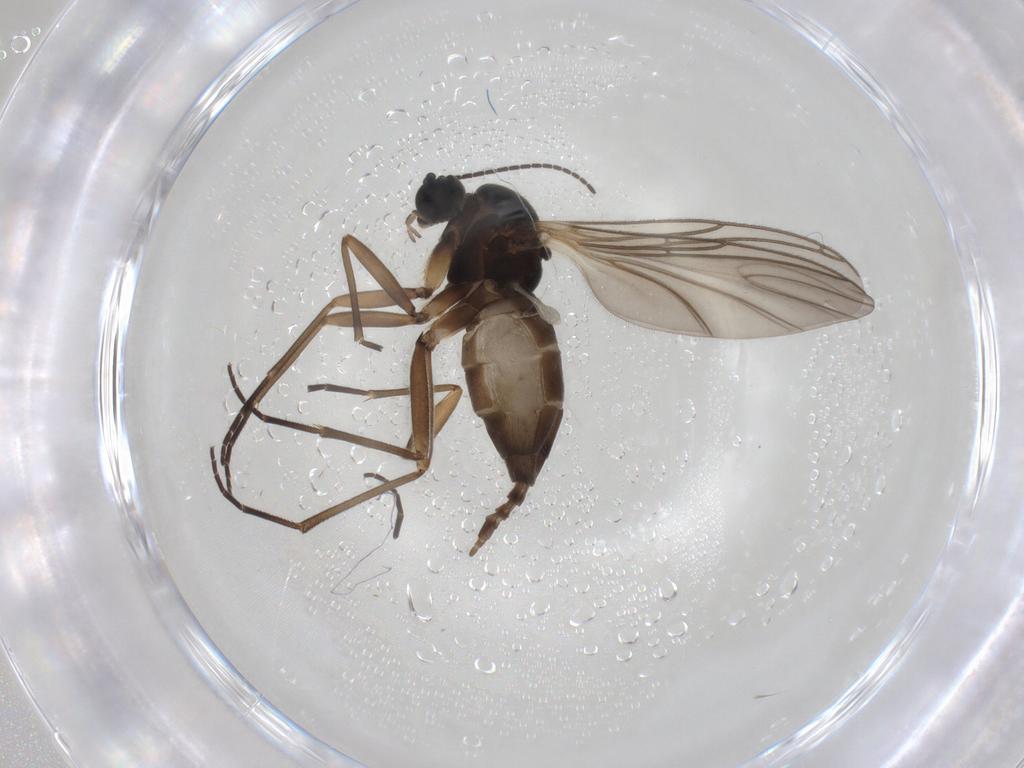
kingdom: Animalia
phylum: Arthropoda
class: Insecta
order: Diptera
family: Sciaridae
